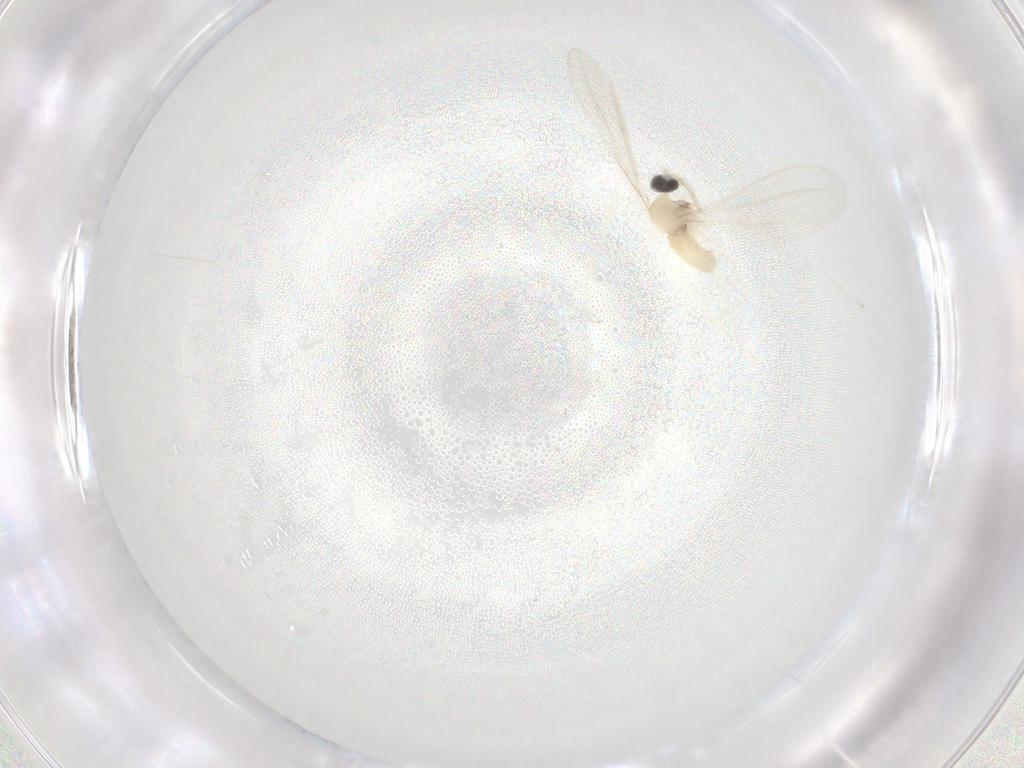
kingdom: Animalia
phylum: Arthropoda
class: Insecta
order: Diptera
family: Cecidomyiidae
